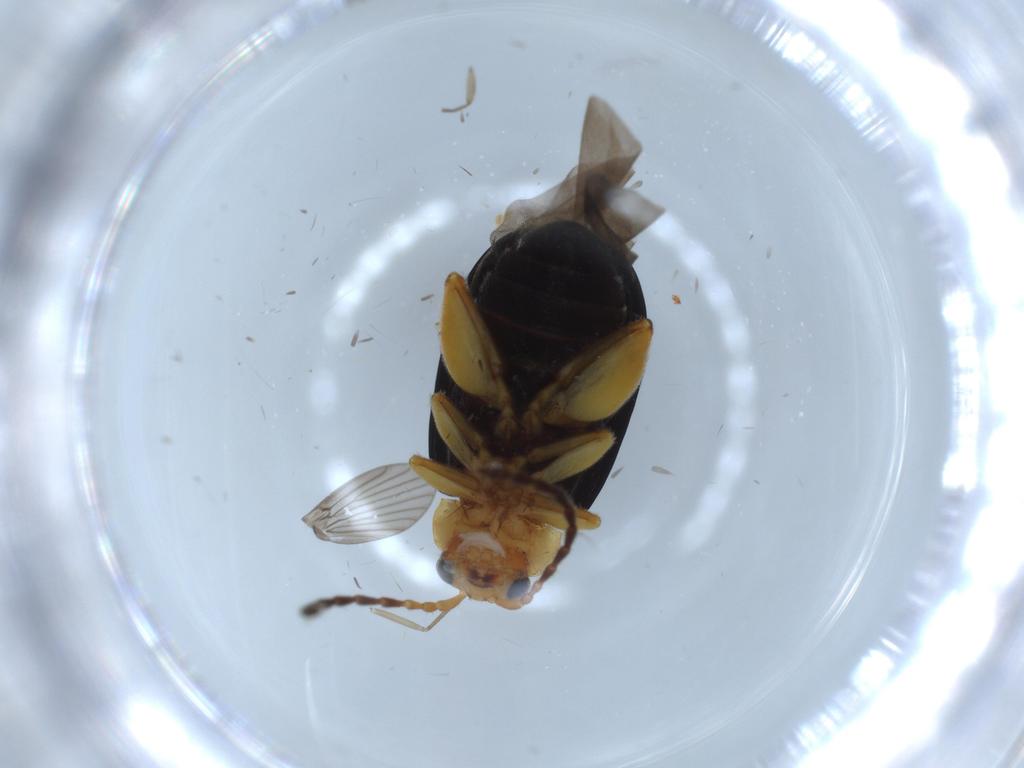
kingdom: Animalia
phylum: Arthropoda
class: Insecta
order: Coleoptera
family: Chrysomelidae
